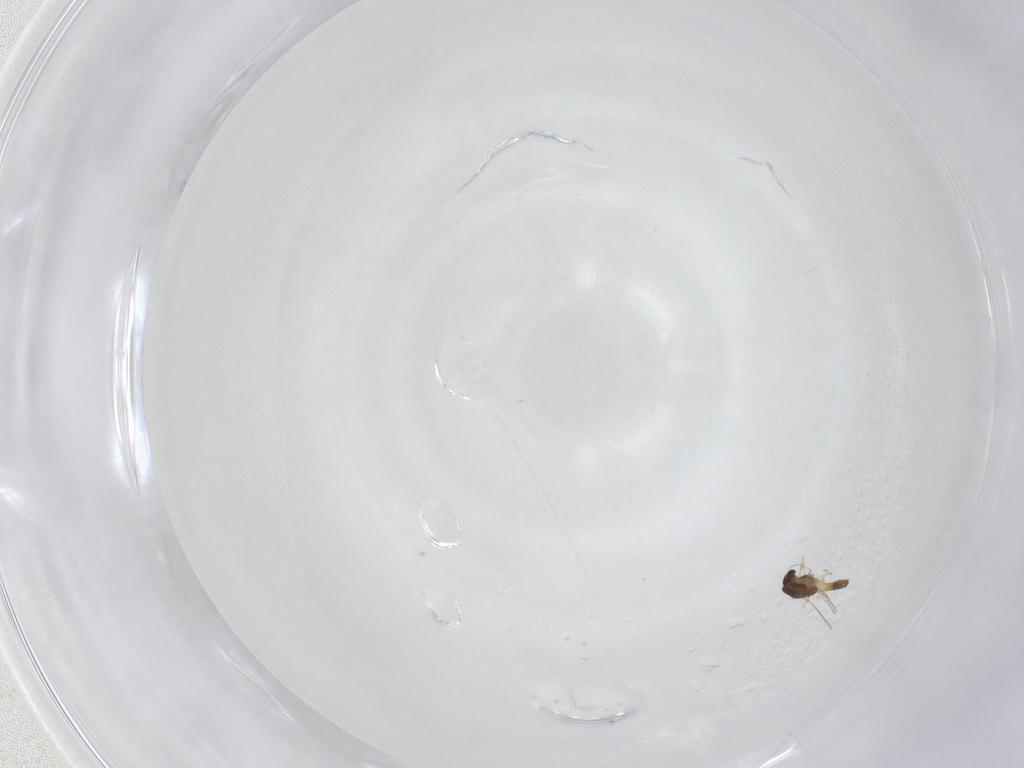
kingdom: Animalia
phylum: Arthropoda
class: Insecta
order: Diptera
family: Chironomidae
